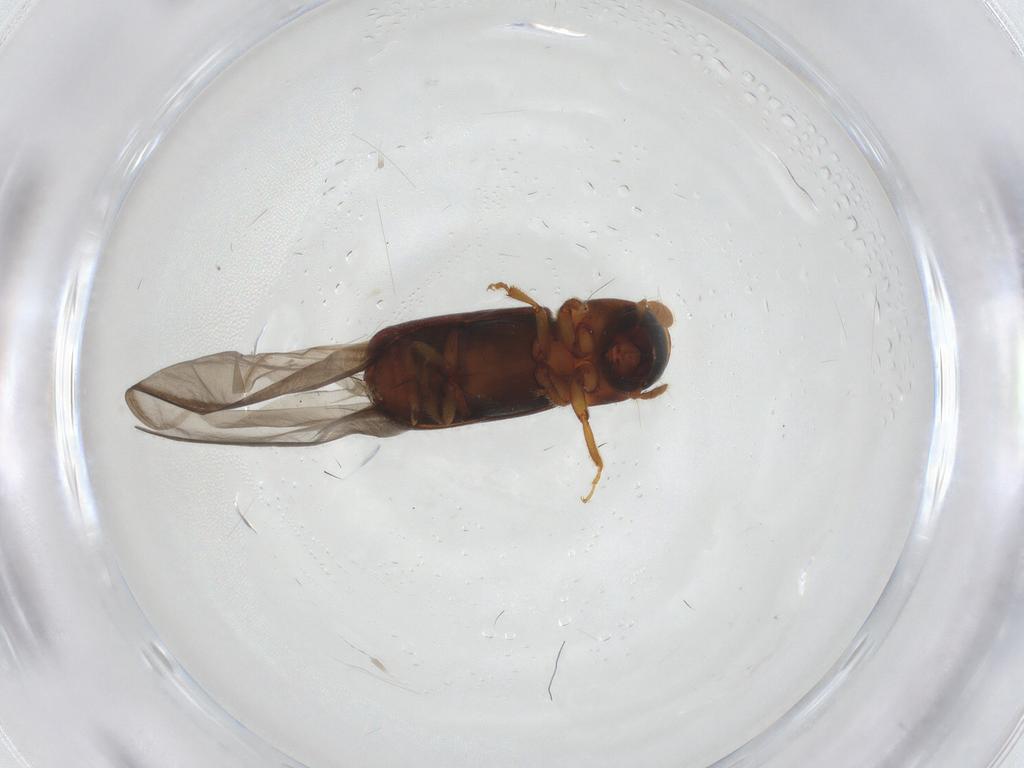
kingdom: Animalia
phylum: Arthropoda
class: Insecta
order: Coleoptera
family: Curculionidae
